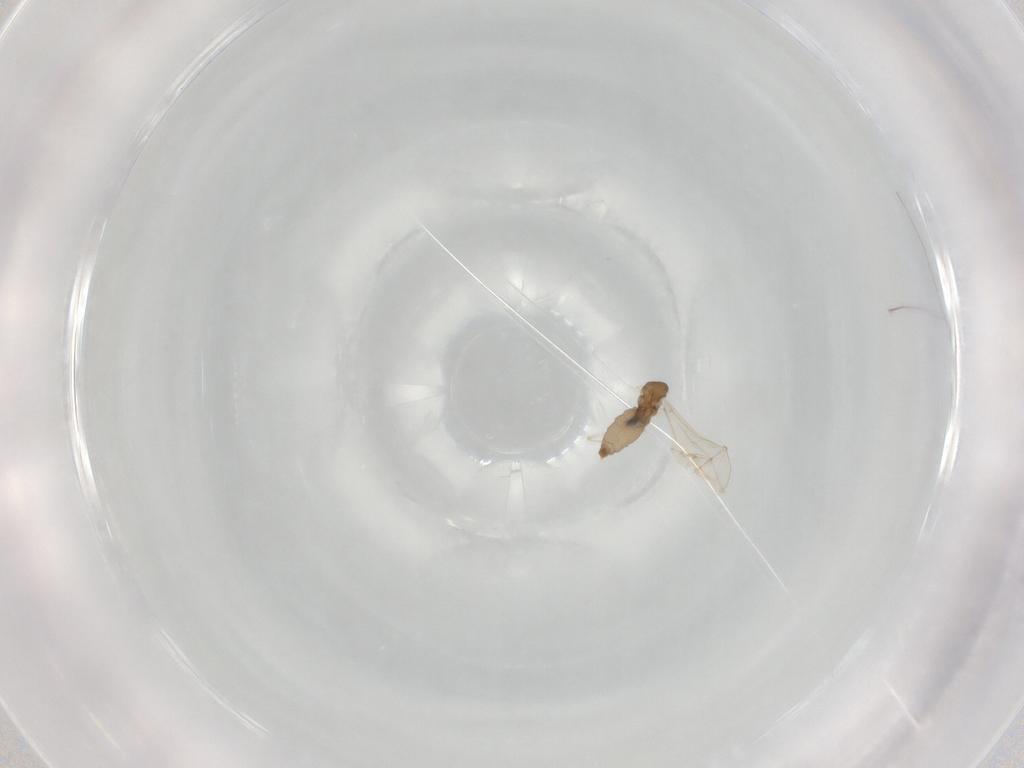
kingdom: Animalia
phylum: Arthropoda
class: Insecta
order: Diptera
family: Cecidomyiidae
